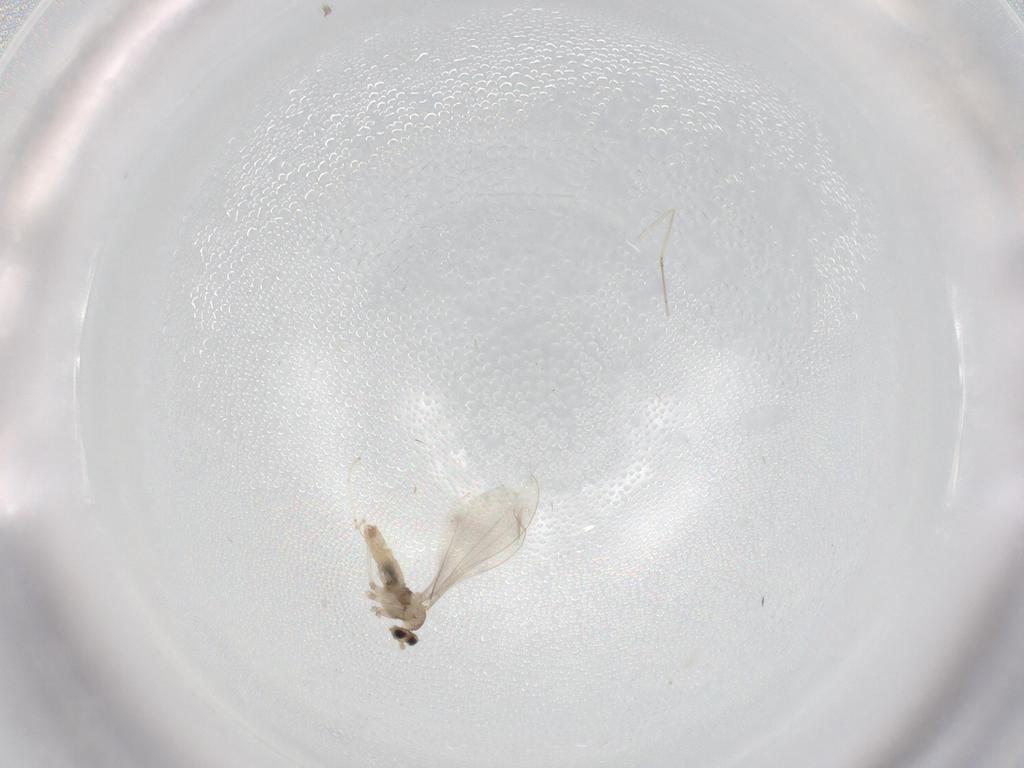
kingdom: Animalia
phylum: Arthropoda
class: Insecta
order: Diptera
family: Cecidomyiidae
